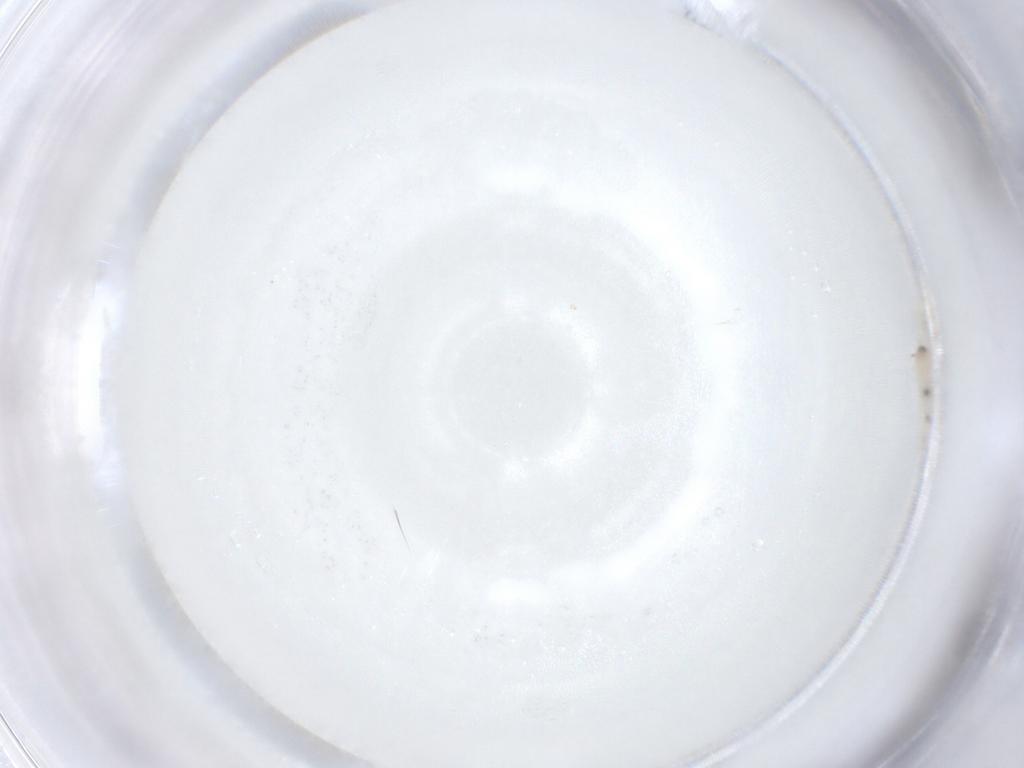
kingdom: Animalia
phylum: Arthropoda
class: Insecta
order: Diptera
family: Cecidomyiidae
